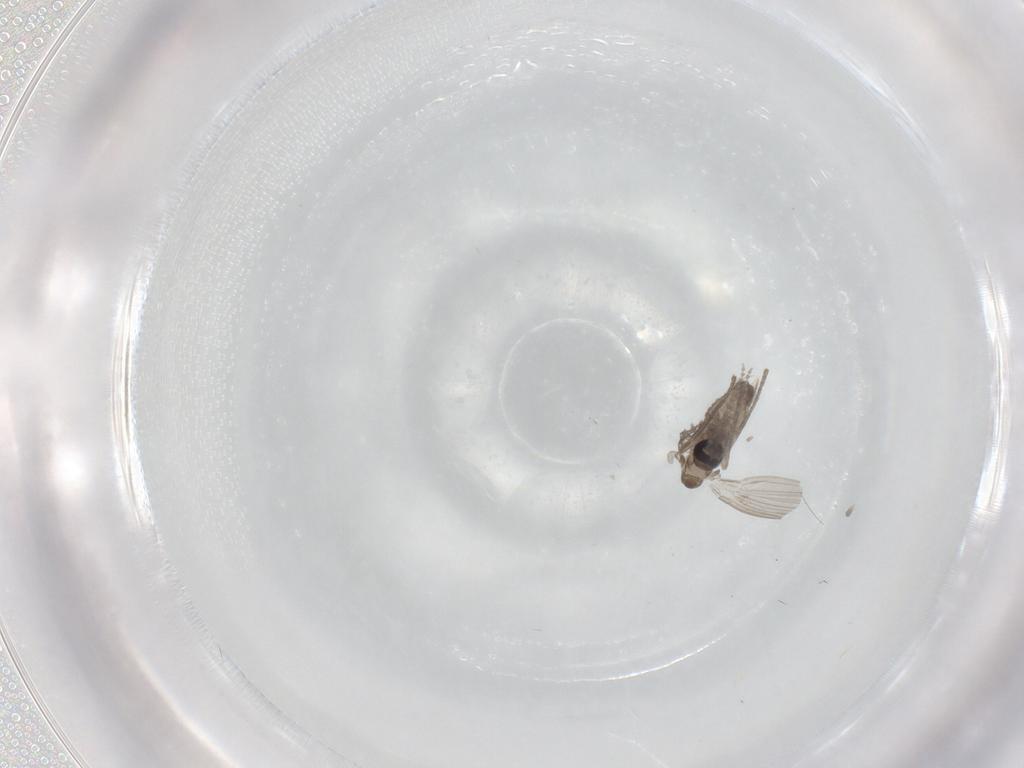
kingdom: Animalia
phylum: Arthropoda
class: Insecta
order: Diptera
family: Psychodidae
